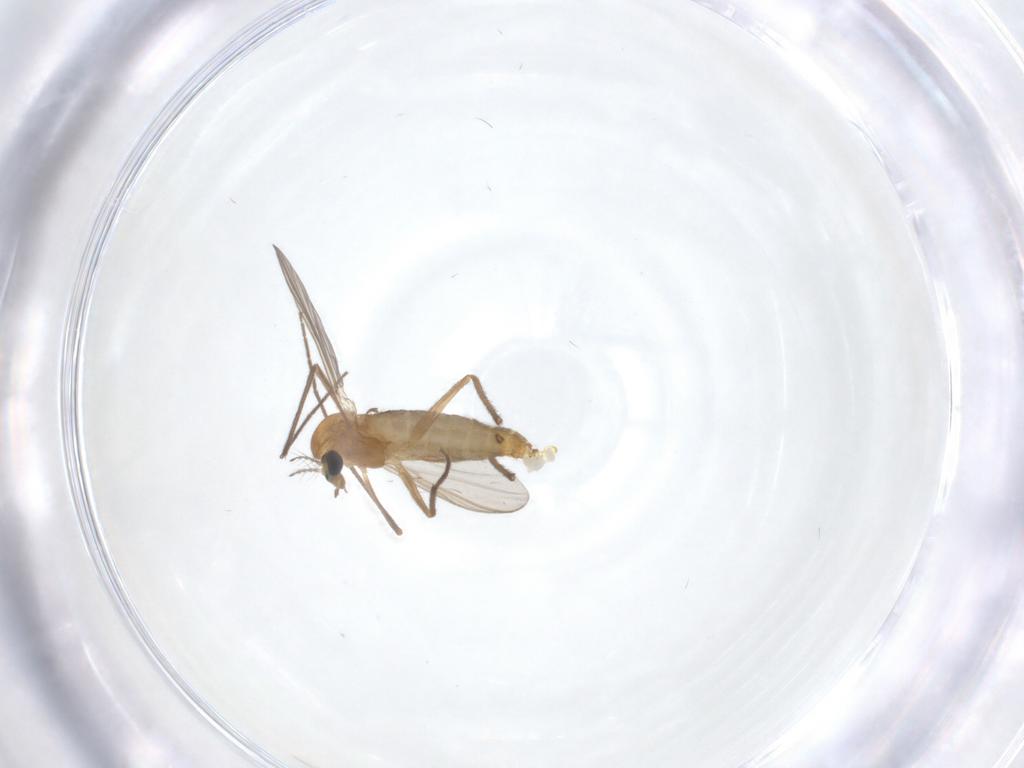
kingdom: Animalia
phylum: Arthropoda
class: Insecta
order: Diptera
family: Chironomidae
